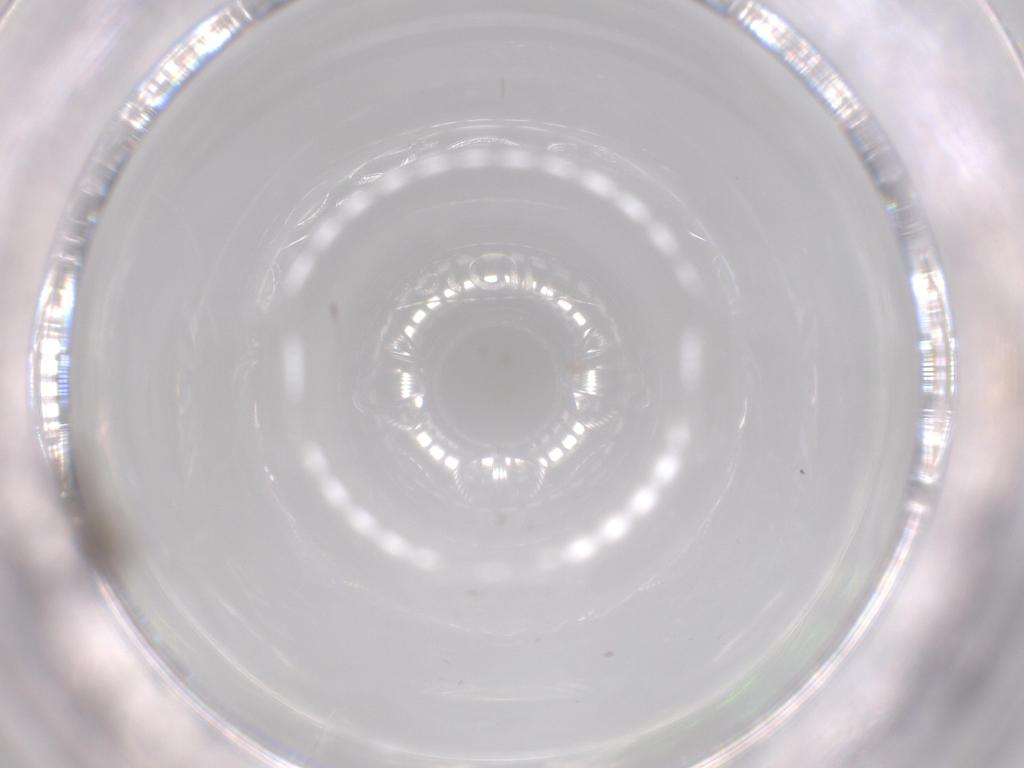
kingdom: Animalia
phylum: Arthropoda
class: Insecta
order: Diptera
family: Sciaridae
